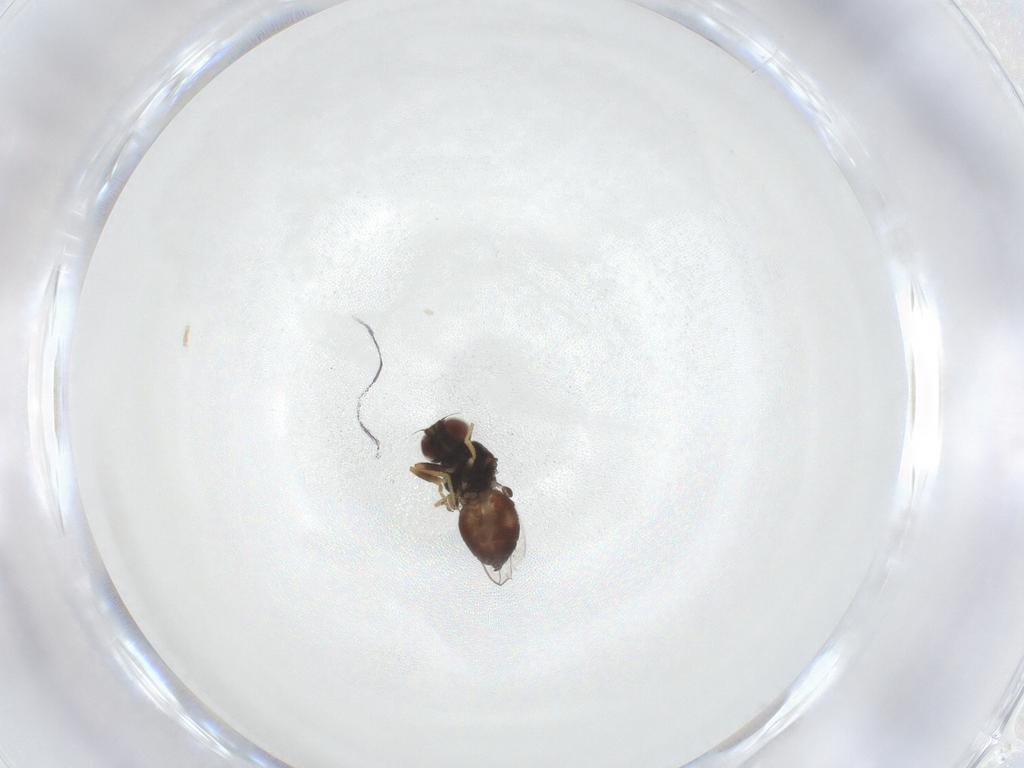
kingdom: Animalia
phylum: Arthropoda
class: Insecta
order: Diptera
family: Chloropidae
